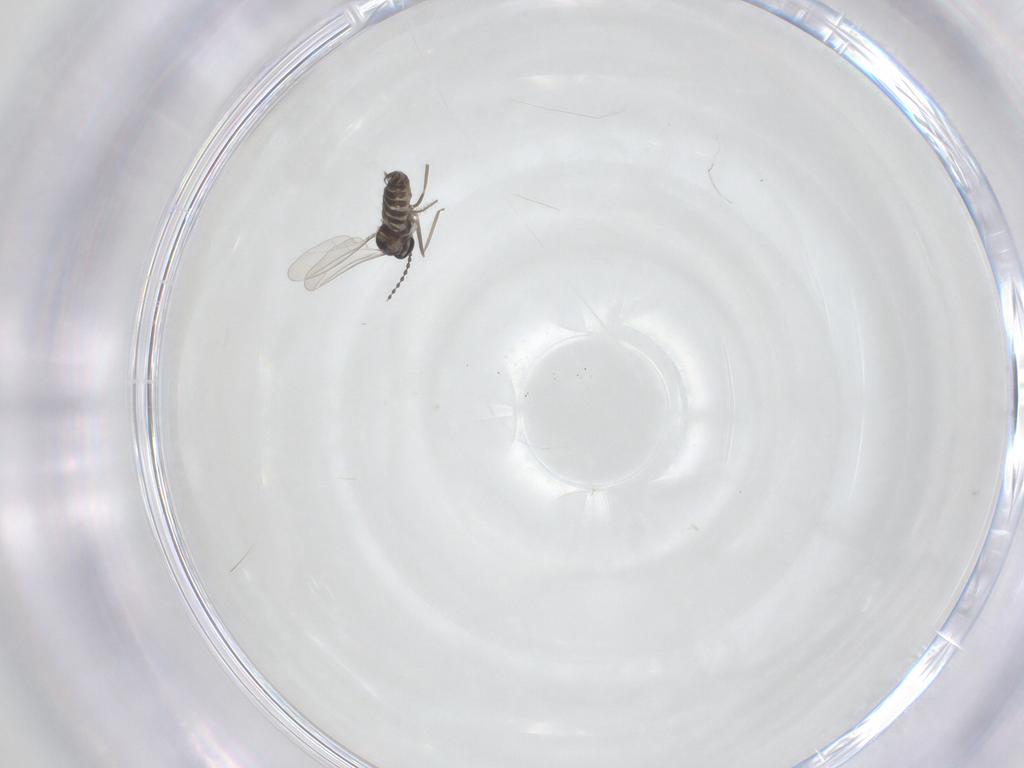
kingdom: Animalia
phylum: Arthropoda
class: Insecta
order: Diptera
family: Cecidomyiidae
